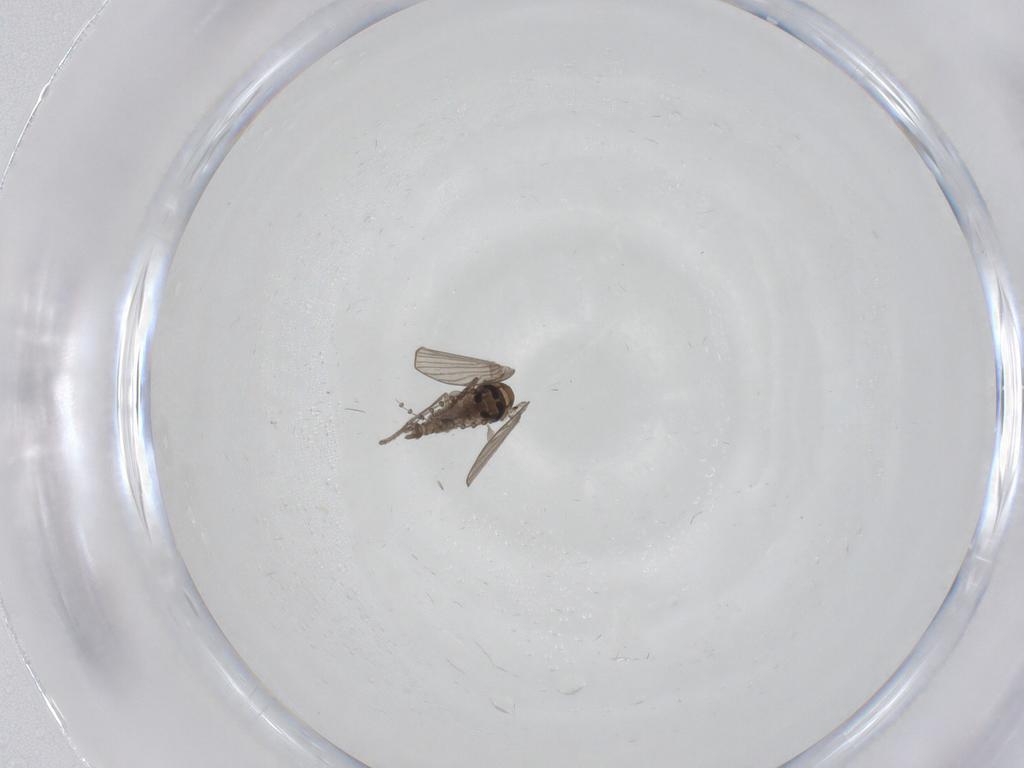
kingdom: Animalia
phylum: Arthropoda
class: Insecta
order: Diptera
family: Psychodidae
